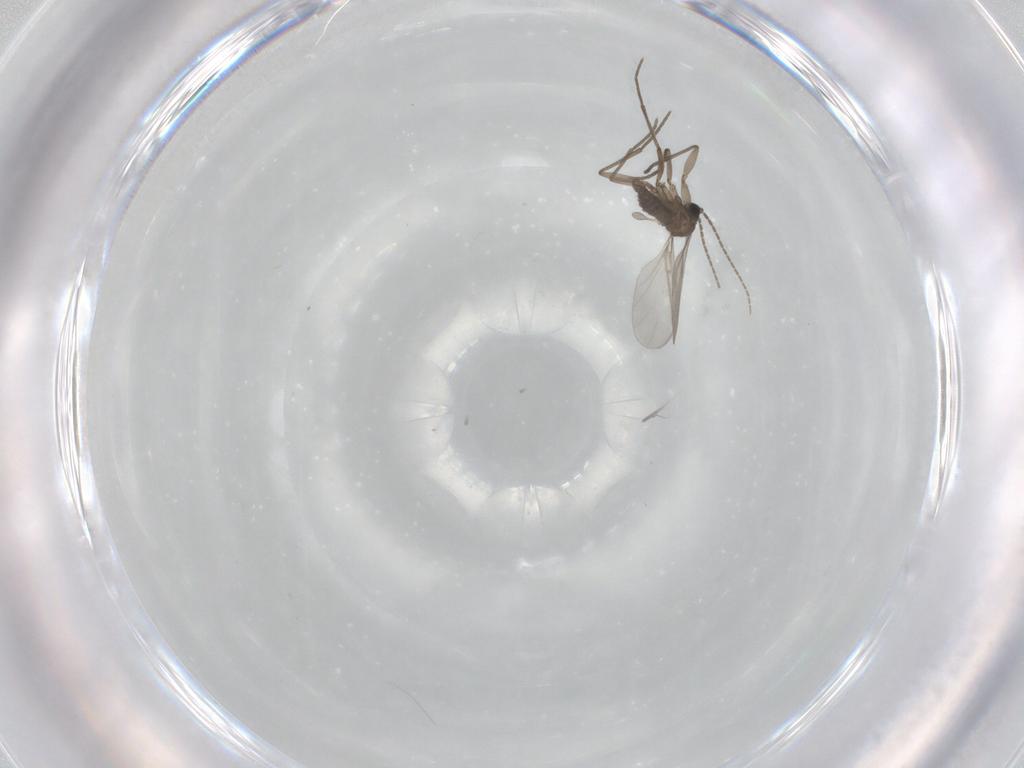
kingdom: Animalia
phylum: Arthropoda
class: Insecta
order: Diptera
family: Sciaridae
